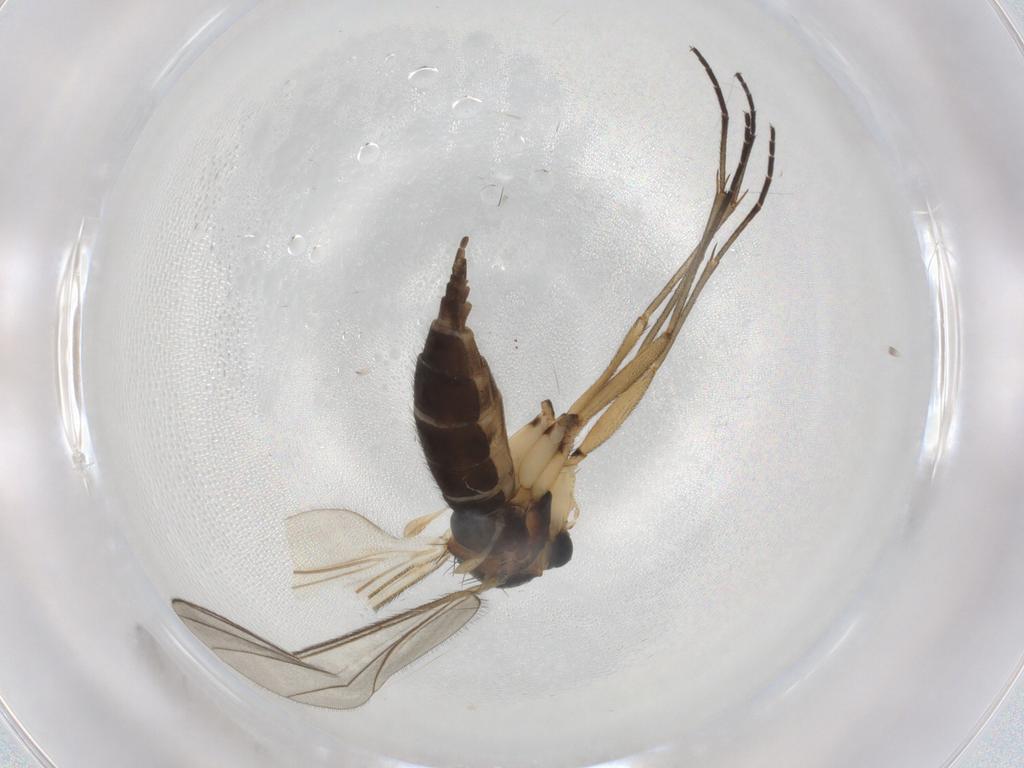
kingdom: Animalia
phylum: Arthropoda
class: Insecta
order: Diptera
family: Sciaridae
